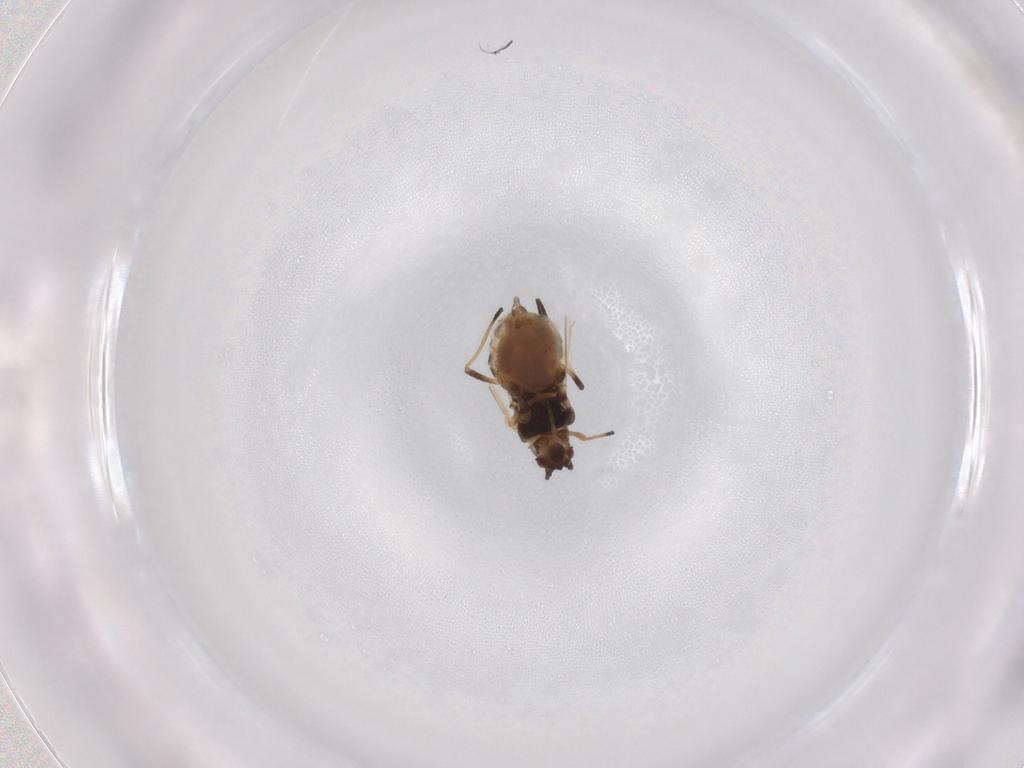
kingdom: Animalia
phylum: Arthropoda
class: Insecta
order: Hemiptera
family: Aphididae
